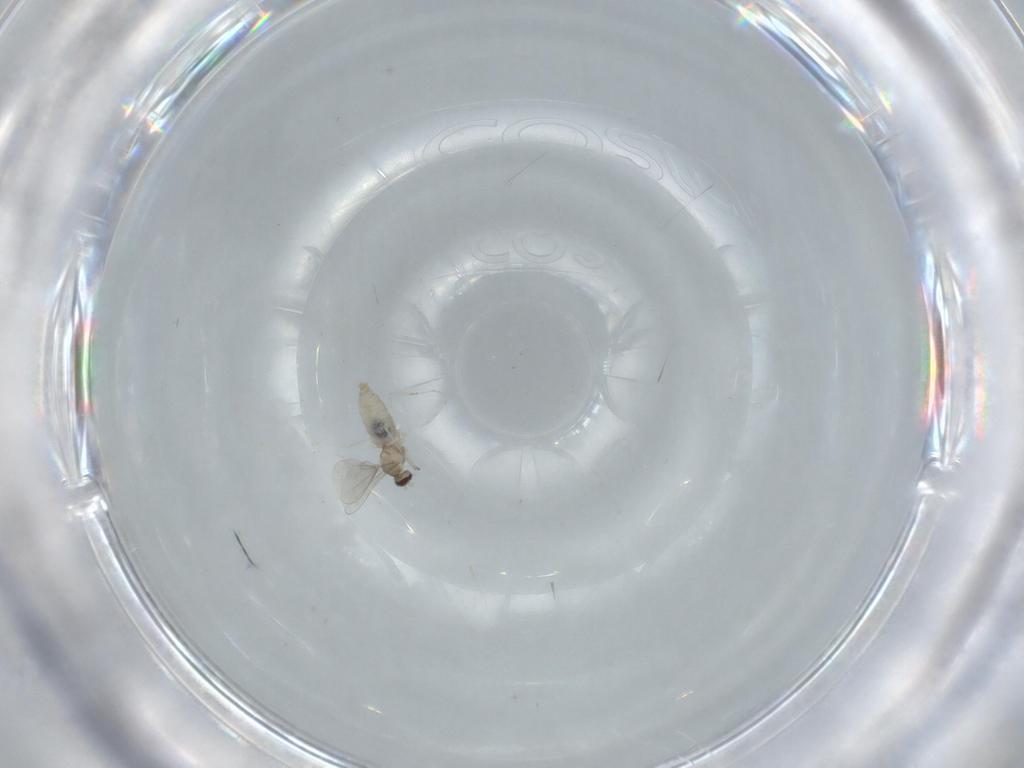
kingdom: Animalia
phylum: Arthropoda
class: Insecta
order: Diptera
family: Cecidomyiidae
